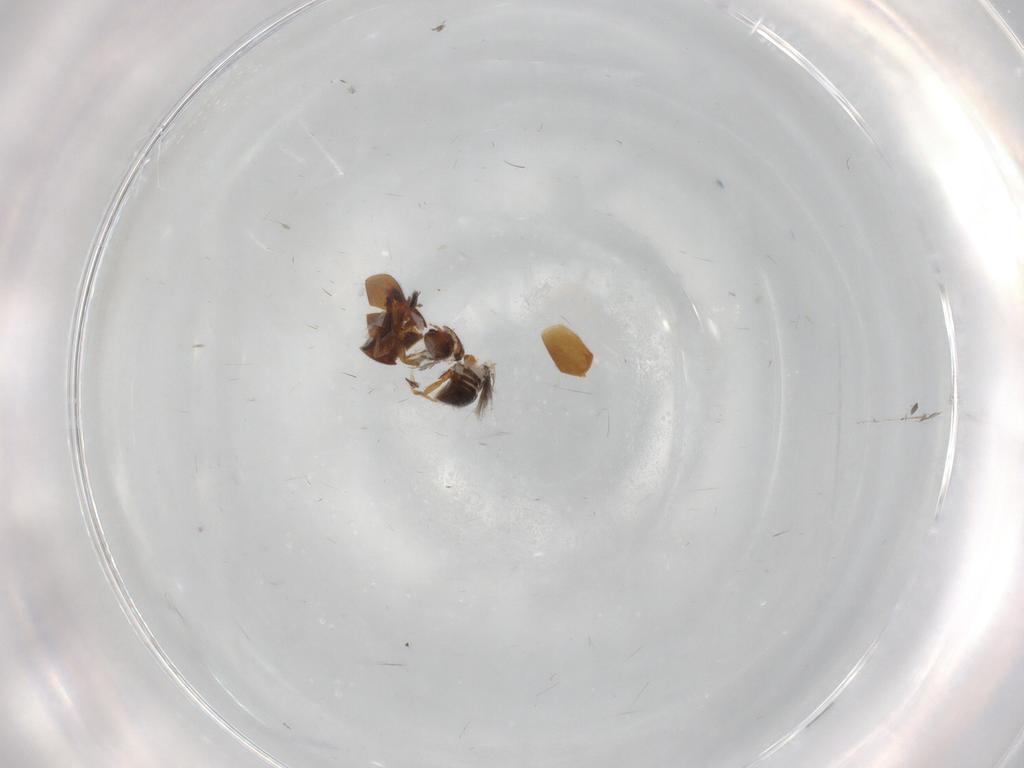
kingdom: Animalia
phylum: Arthropoda
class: Insecta
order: Diptera
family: Cecidomyiidae
